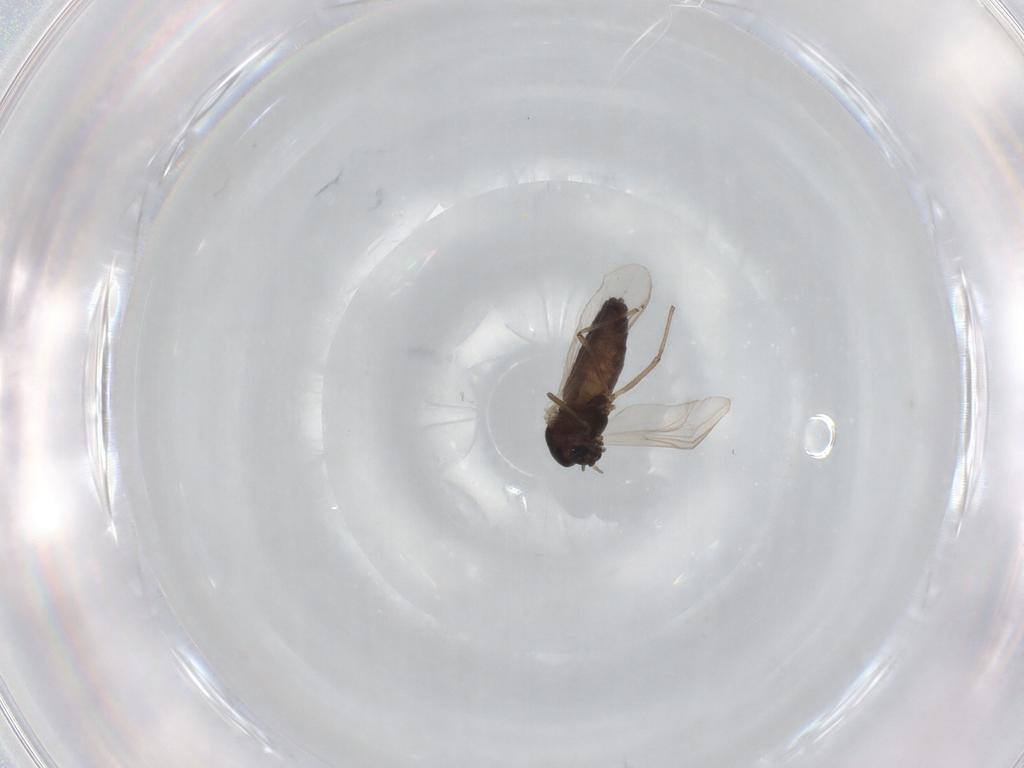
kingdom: Animalia
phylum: Arthropoda
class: Insecta
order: Diptera
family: Chironomidae
